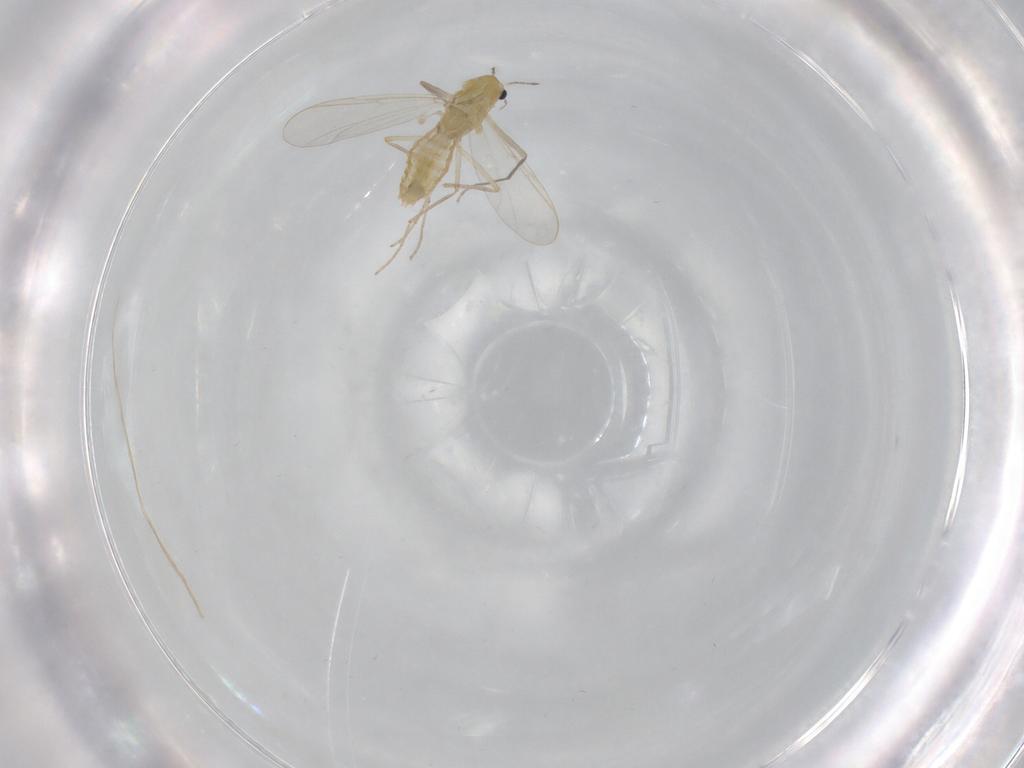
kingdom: Animalia
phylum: Arthropoda
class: Insecta
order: Diptera
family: Chironomidae
